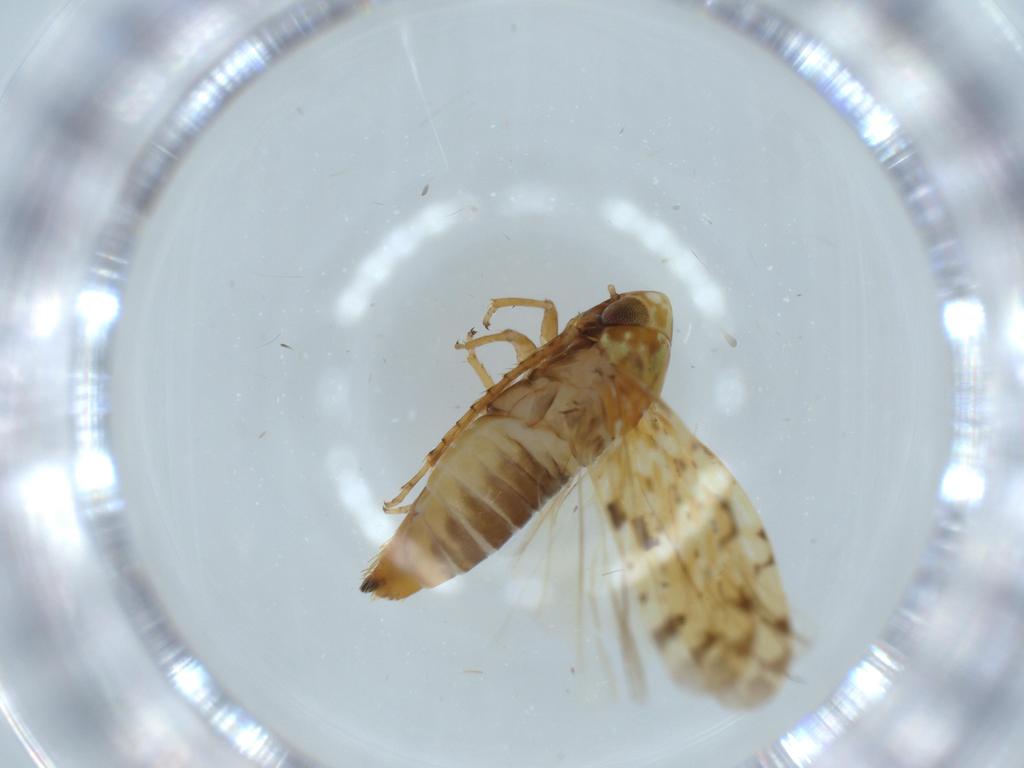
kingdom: Animalia
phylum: Arthropoda
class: Insecta
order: Hemiptera
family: Cicadellidae
